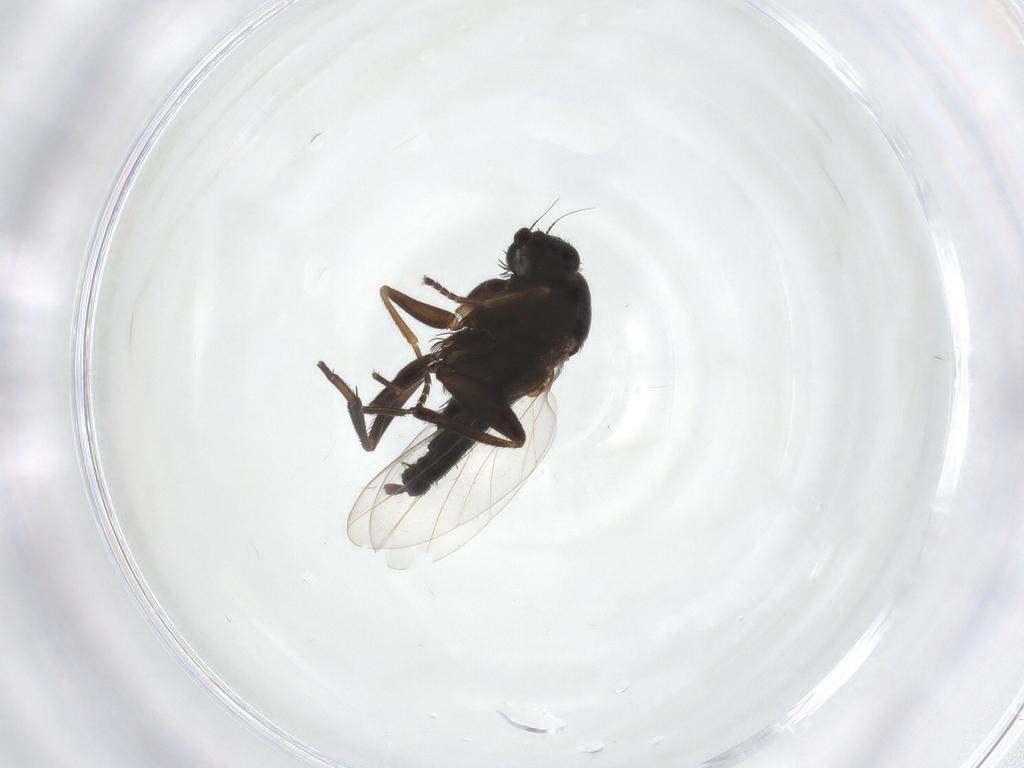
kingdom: Animalia
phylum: Arthropoda
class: Insecta
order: Diptera
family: Phoridae
